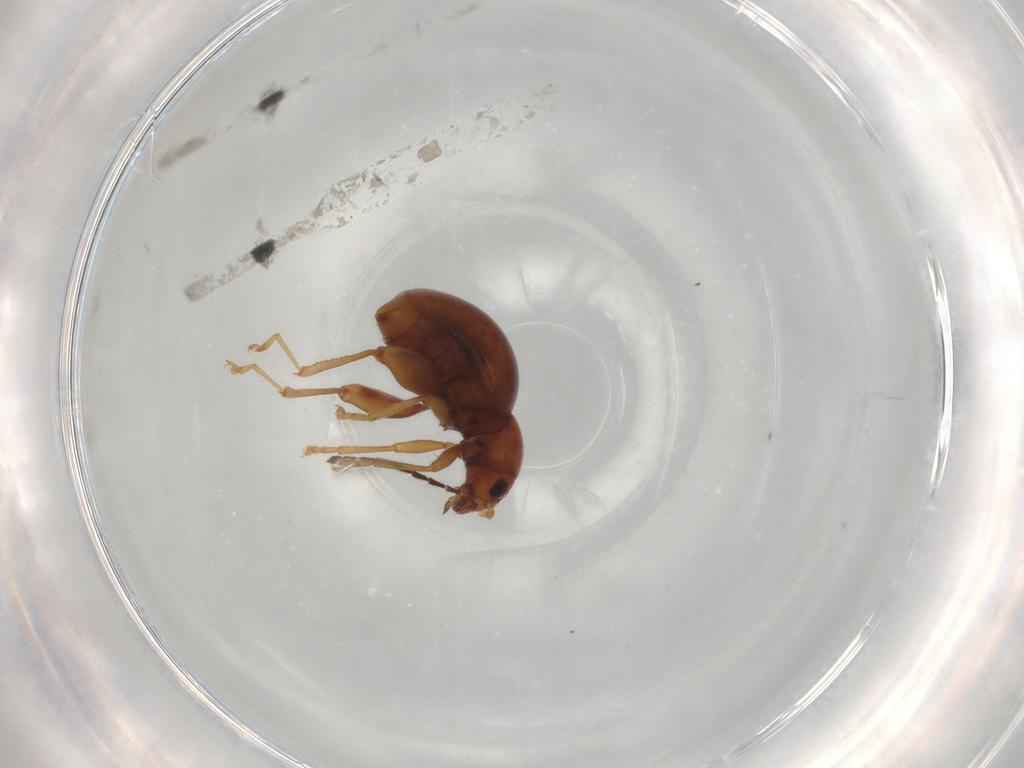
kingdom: Animalia
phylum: Arthropoda
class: Insecta
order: Coleoptera
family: Chrysomelidae
